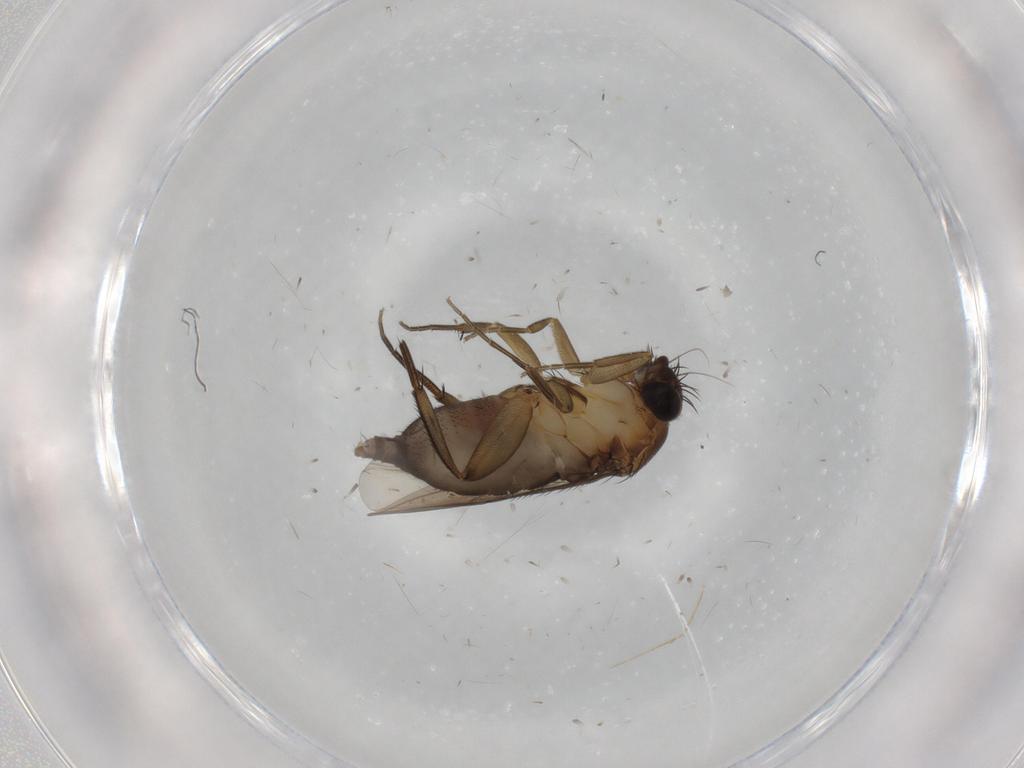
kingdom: Animalia
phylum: Arthropoda
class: Insecta
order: Diptera
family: Phoridae
